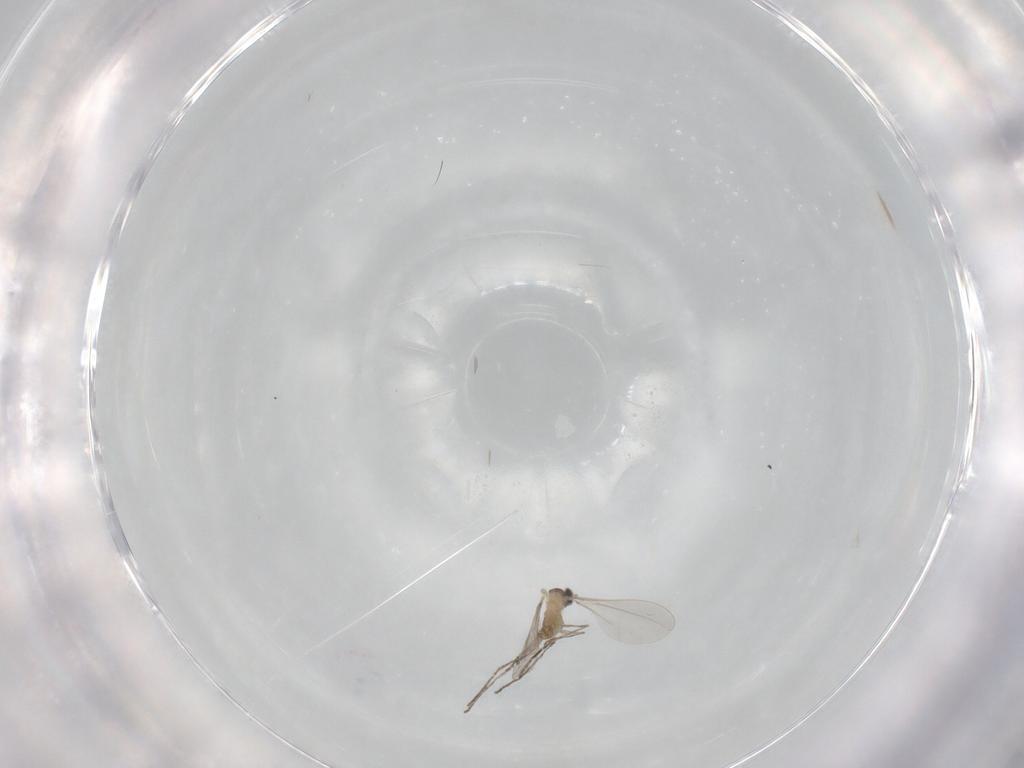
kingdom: Animalia
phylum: Arthropoda
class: Insecta
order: Diptera
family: Cecidomyiidae
